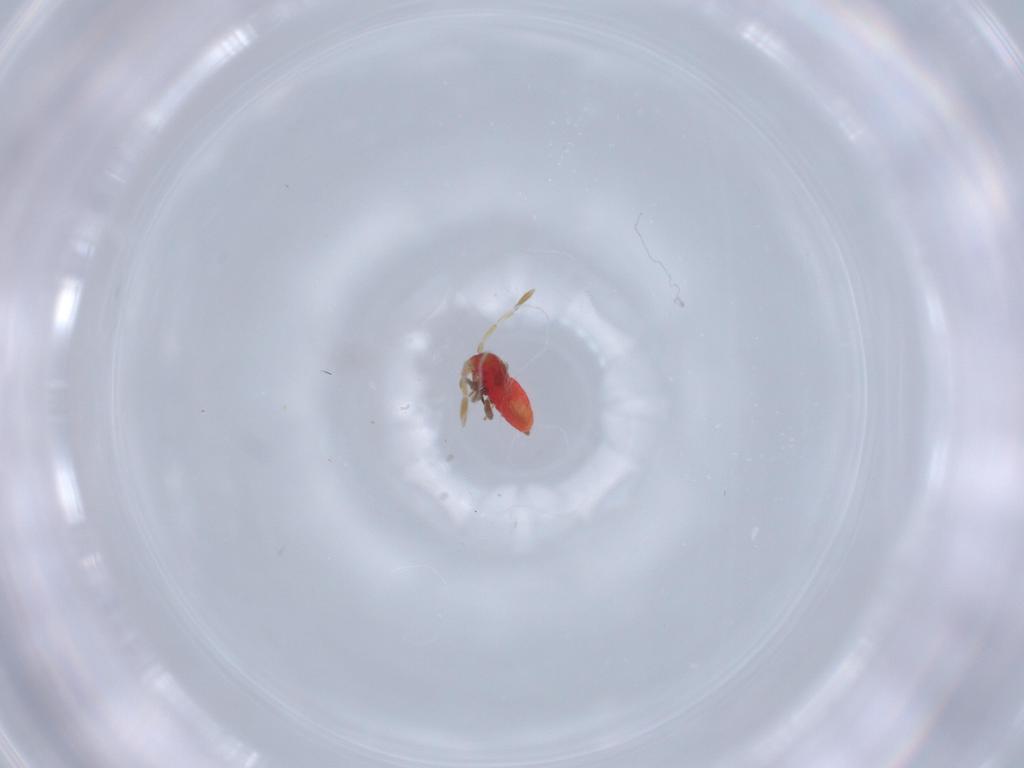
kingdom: Animalia
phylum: Arthropoda
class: Insecta
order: Hemiptera
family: Miridae
